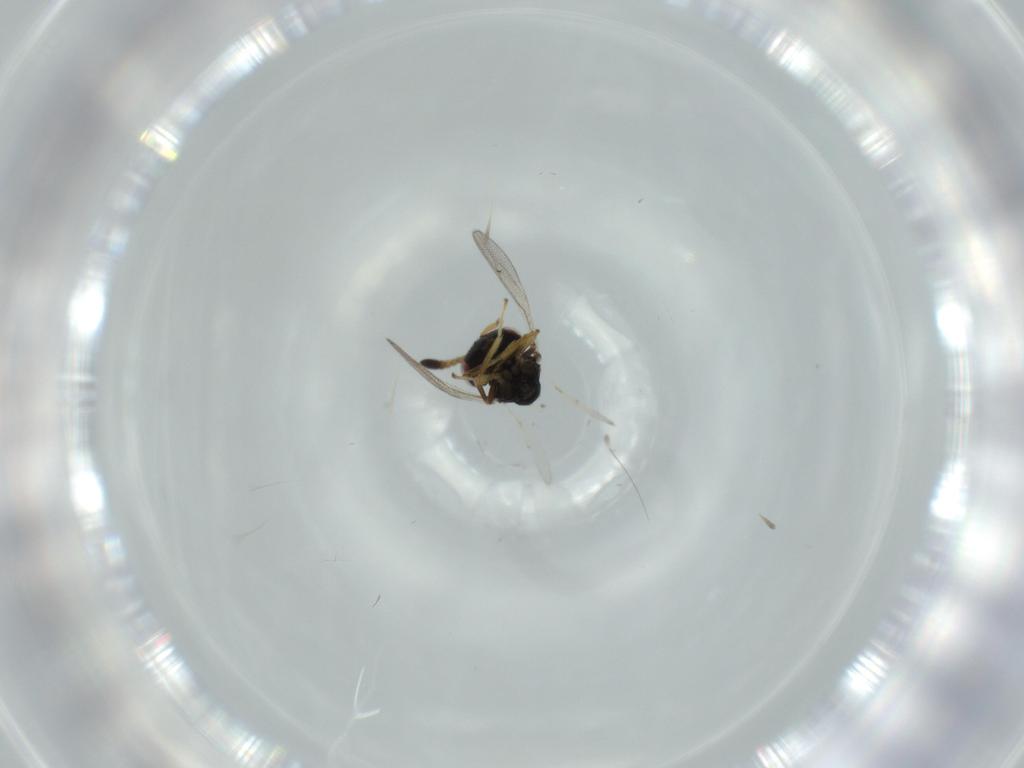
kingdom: Animalia
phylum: Arthropoda
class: Insecta
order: Hymenoptera
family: Pteromalidae
